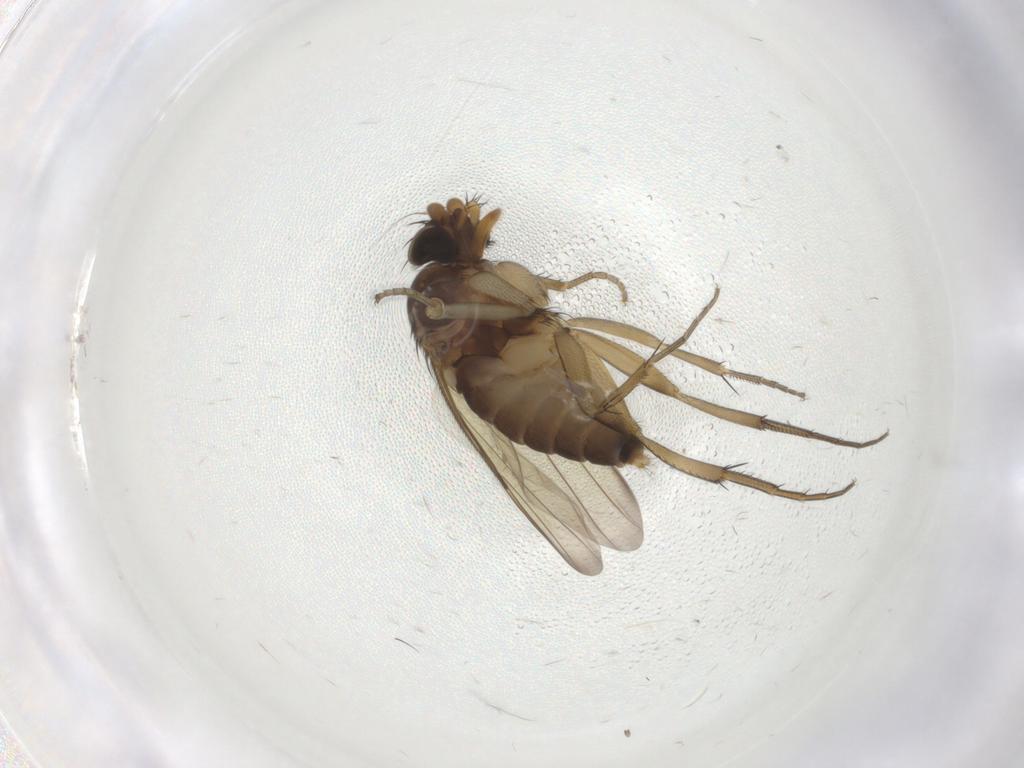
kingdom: Animalia
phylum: Arthropoda
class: Insecta
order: Diptera
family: Phoridae
